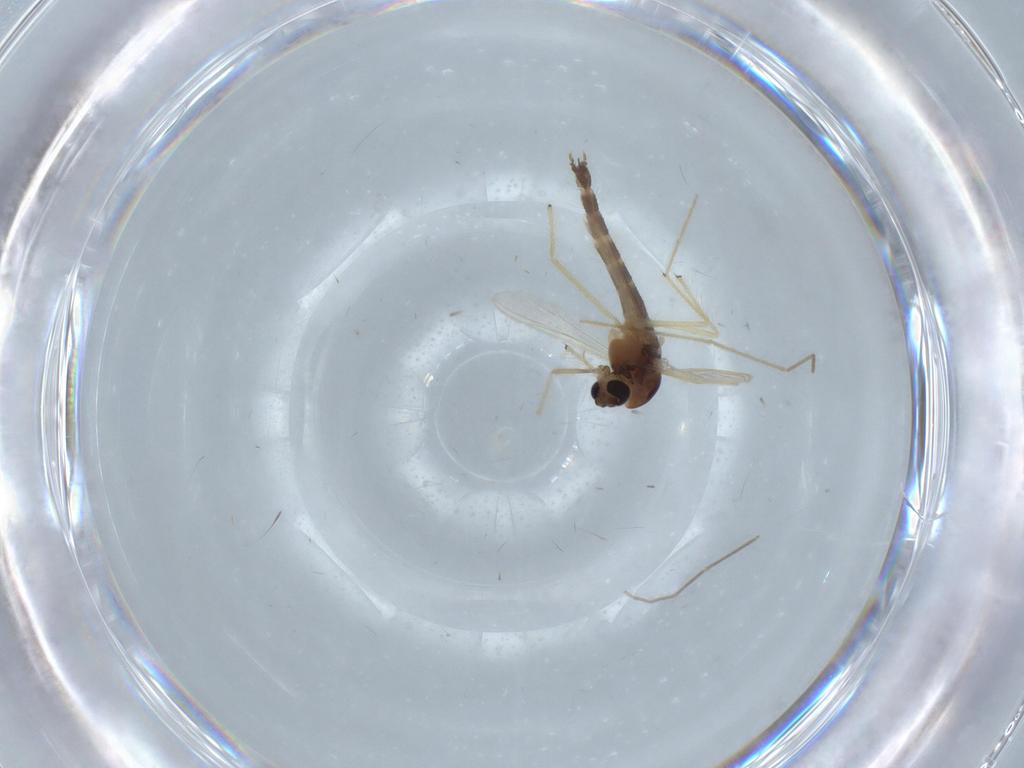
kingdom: Animalia
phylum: Arthropoda
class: Insecta
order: Diptera
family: Chironomidae
